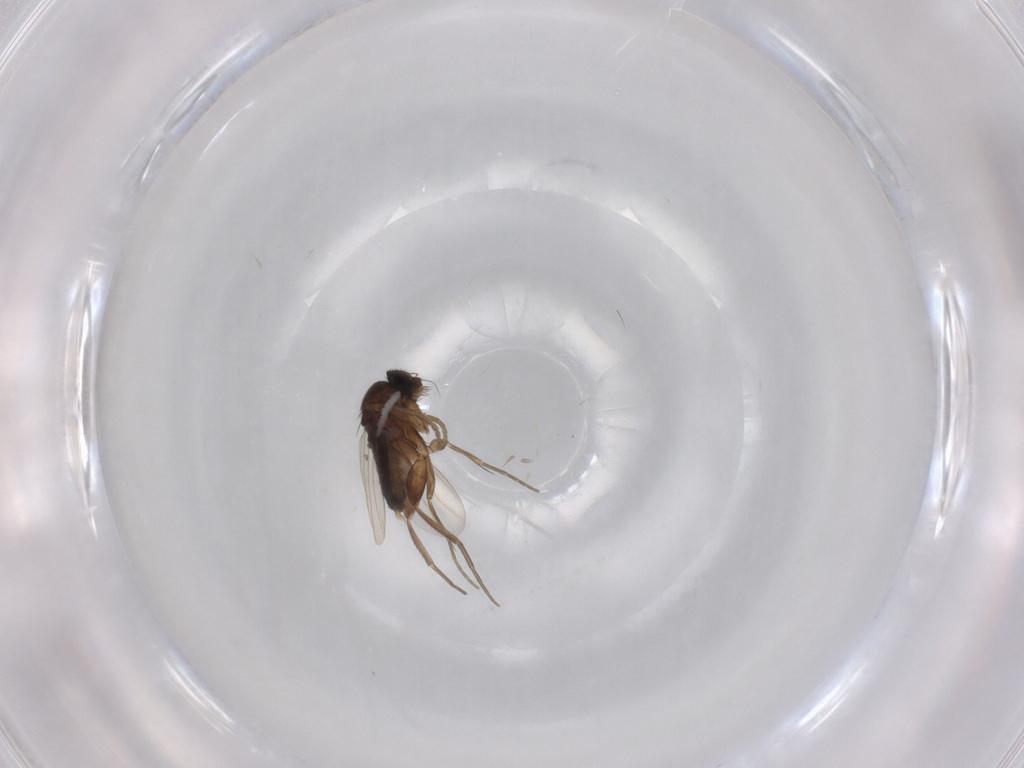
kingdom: Animalia
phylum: Arthropoda
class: Insecta
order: Diptera
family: Phoridae
